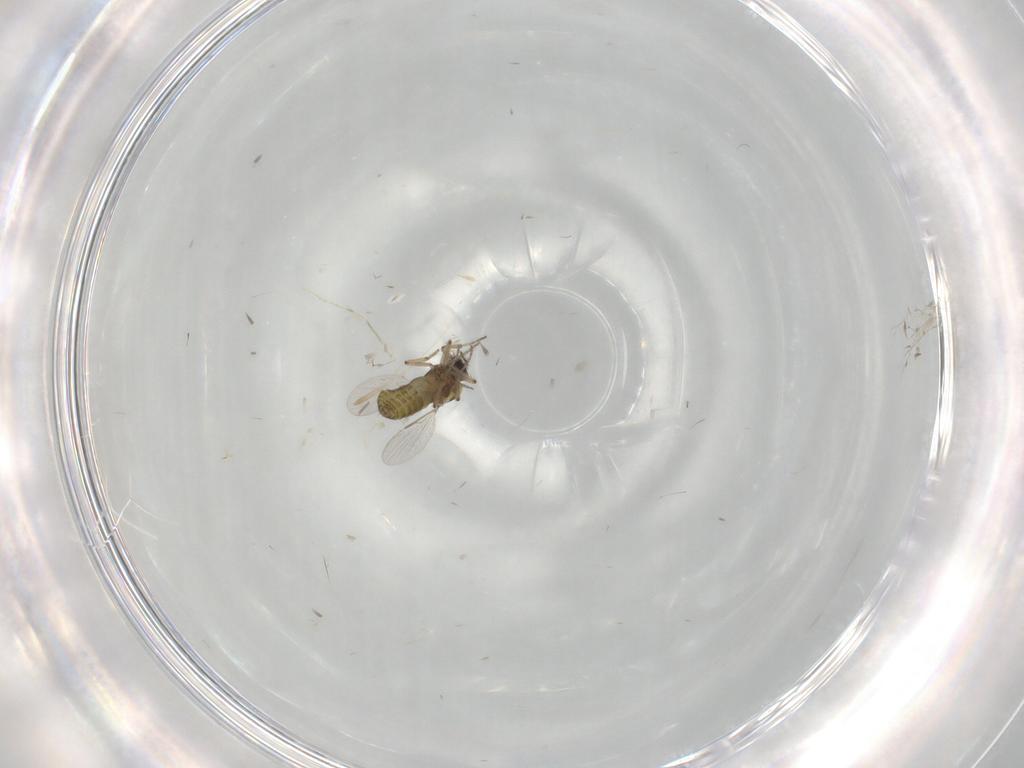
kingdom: Animalia
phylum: Arthropoda
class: Insecta
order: Diptera
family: Ceratopogonidae
